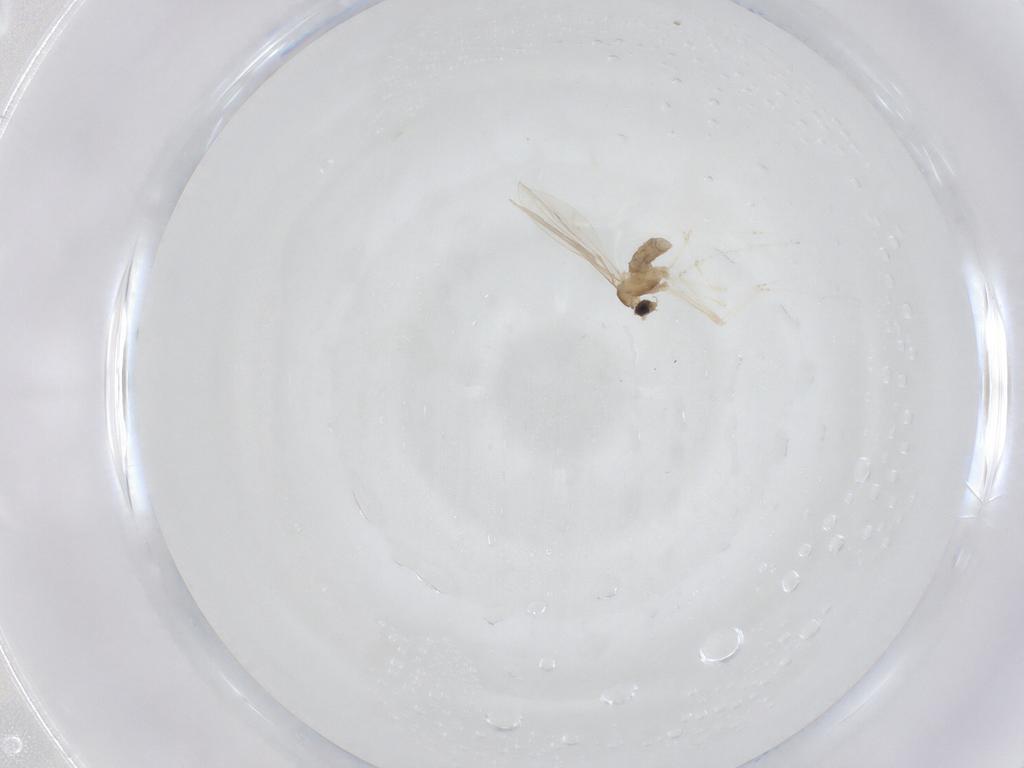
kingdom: Animalia
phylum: Arthropoda
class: Insecta
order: Diptera
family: Cecidomyiidae
